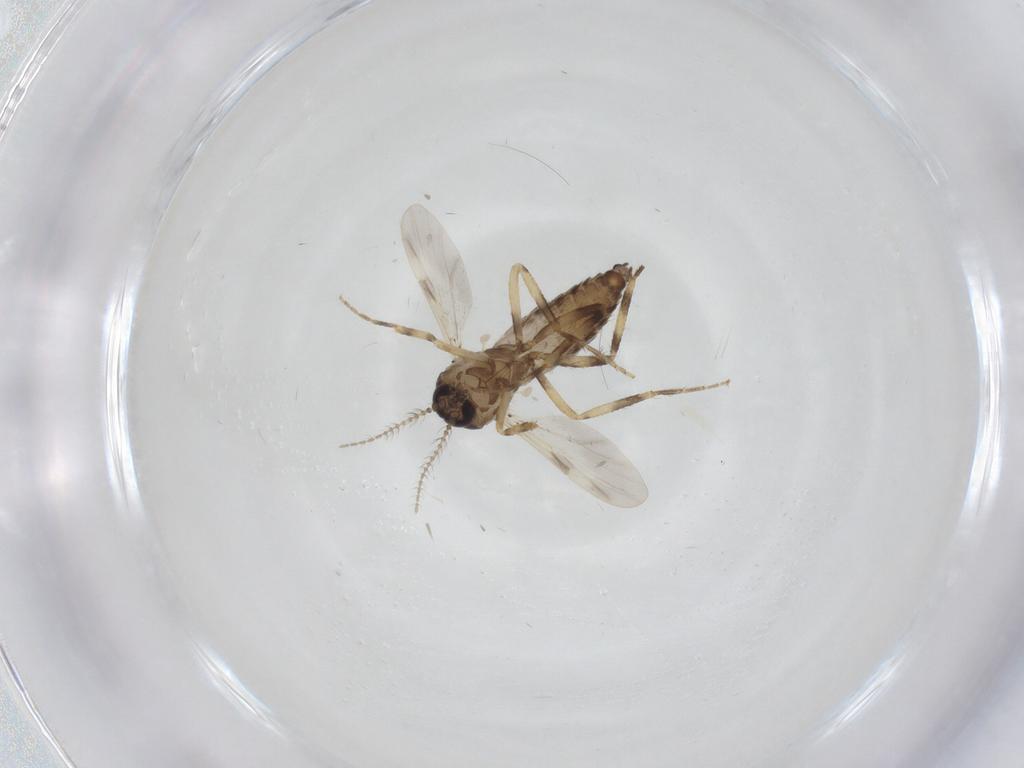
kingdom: Animalia
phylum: Arthropoda
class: Insecta
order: Diptera
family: Ceratopogonidae
